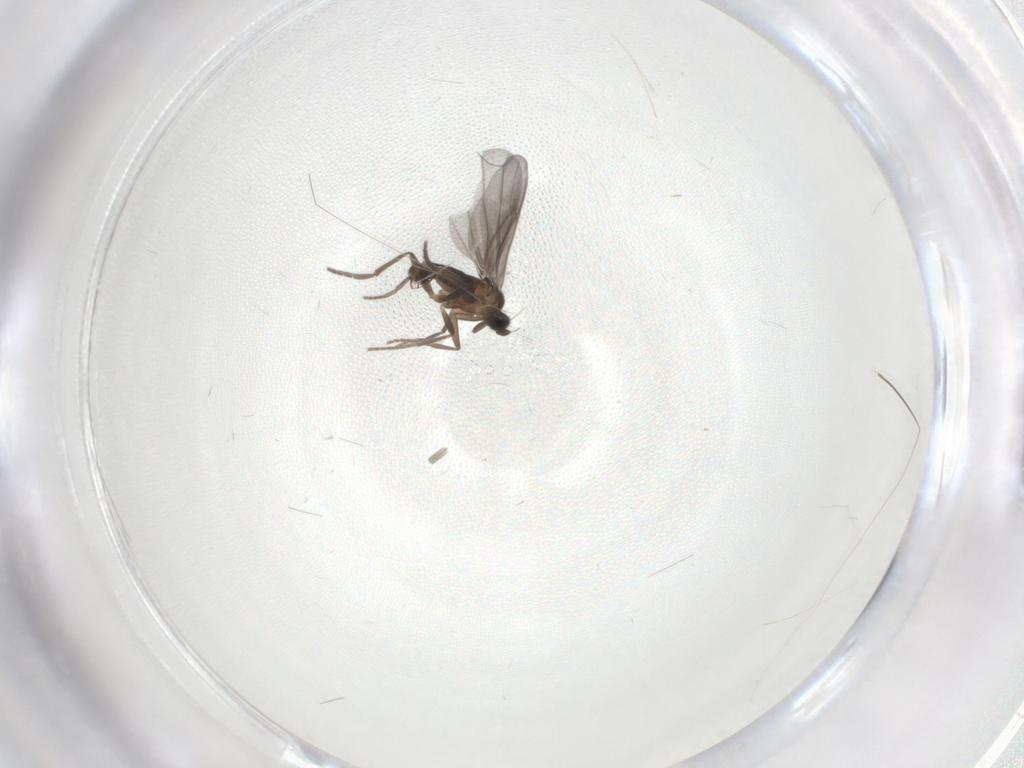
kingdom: Animalia
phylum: Arthropoda
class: Insecta
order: Diptera
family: Phoridae
